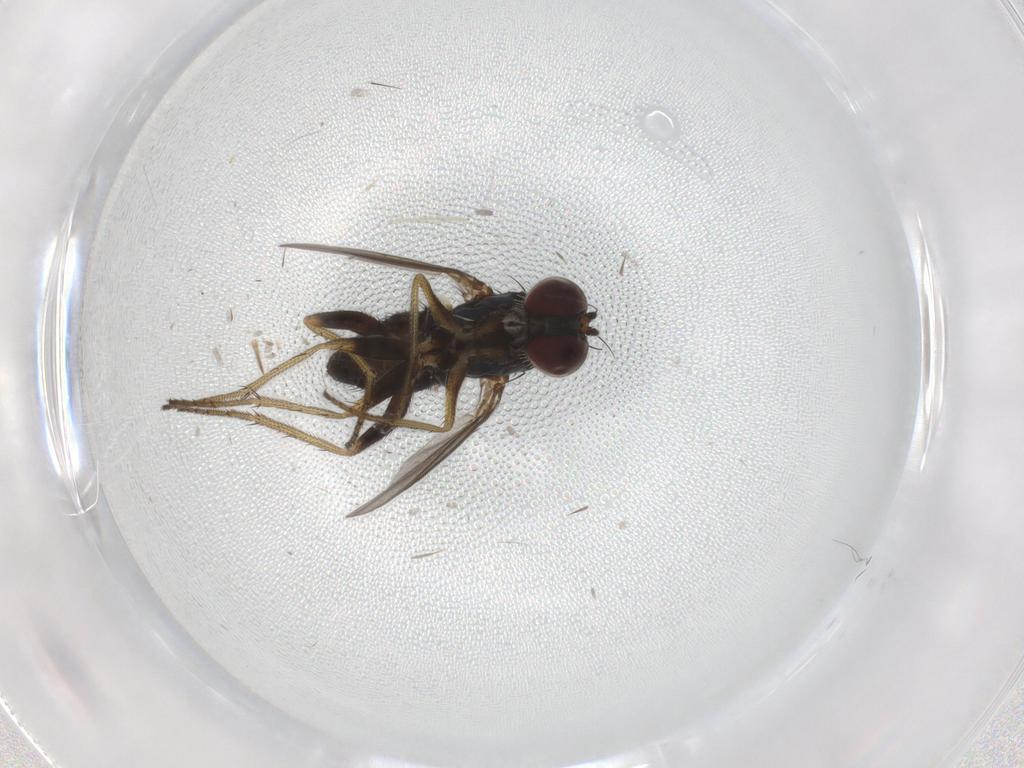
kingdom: Animalia
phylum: Arthropoda
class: Insecta
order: Diptera
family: Dolichopodidae
